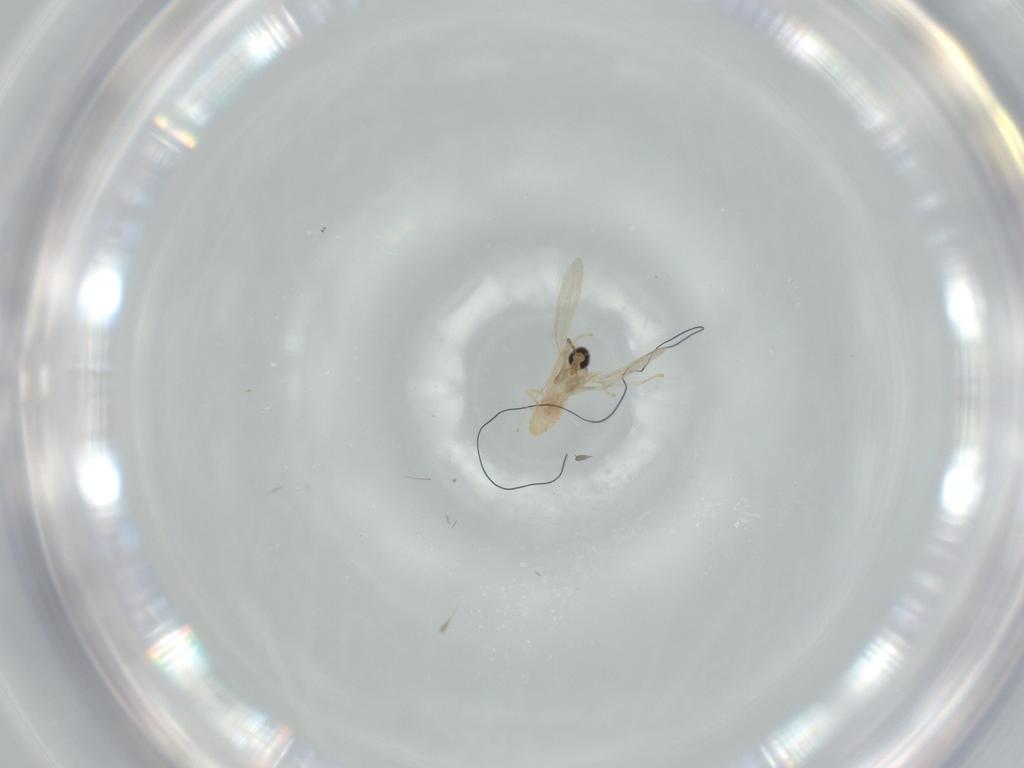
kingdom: Animalia
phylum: Arthropoda
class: Insecta
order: Diptera
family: Cecidomyiidae
